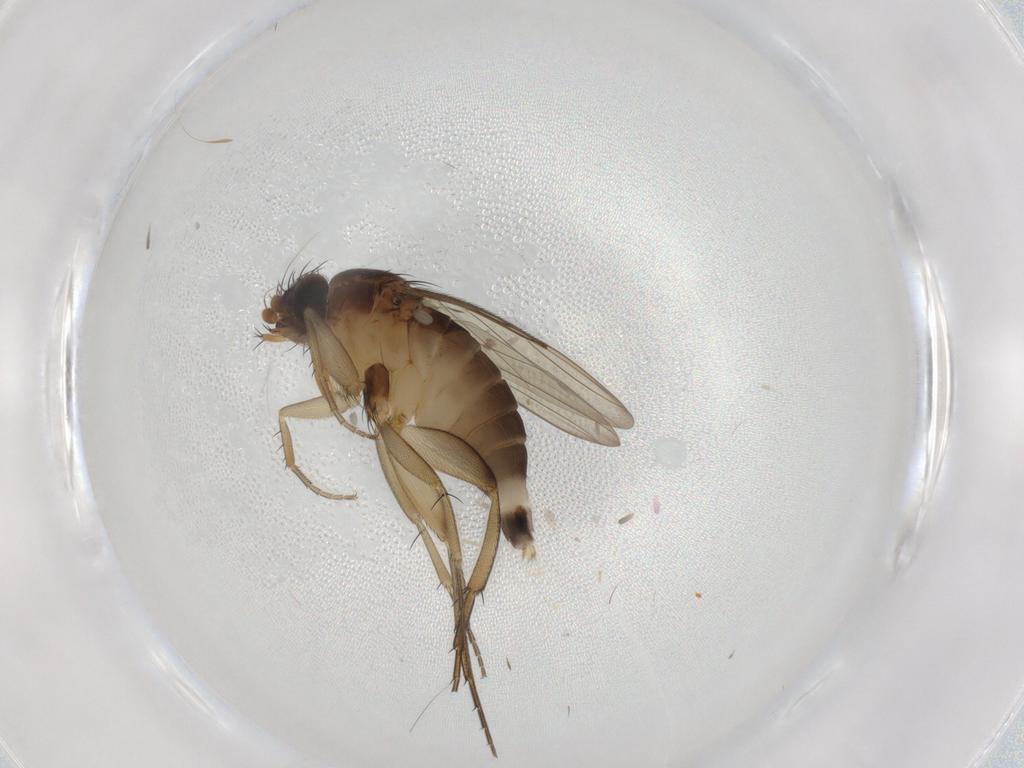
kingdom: Animalia
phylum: Arthropoda
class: Insecta
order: Diptera
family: Phoridae
